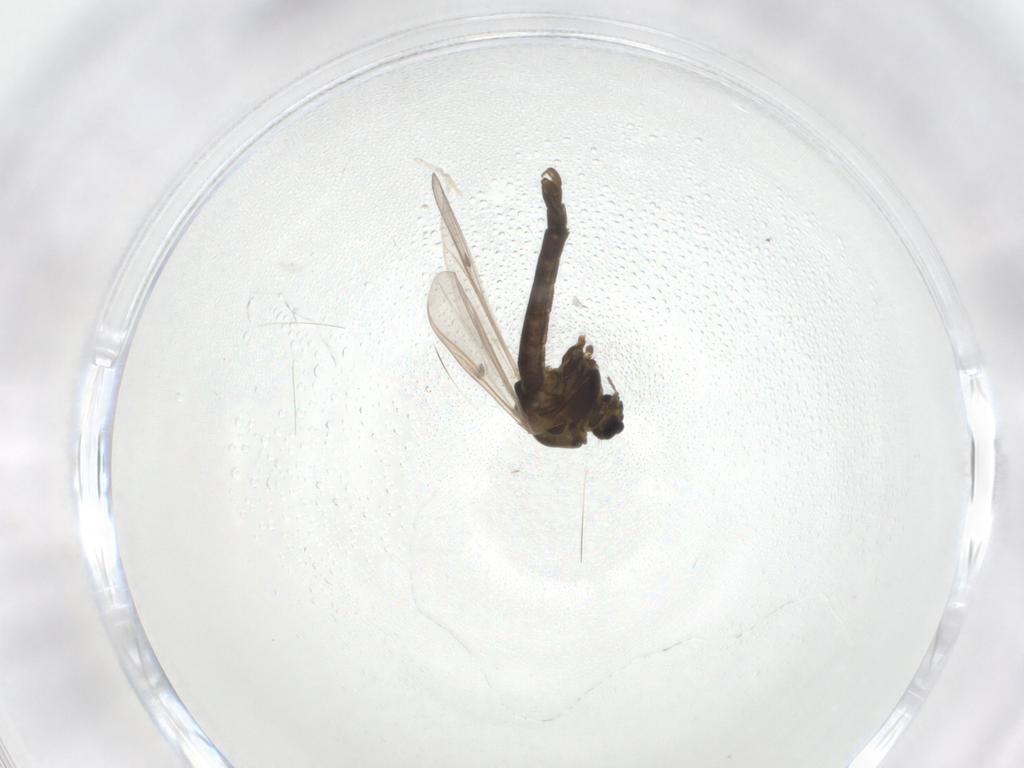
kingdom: Animalia
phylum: Arthropoda
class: Insecta
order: Diptera
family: Chironomidae
